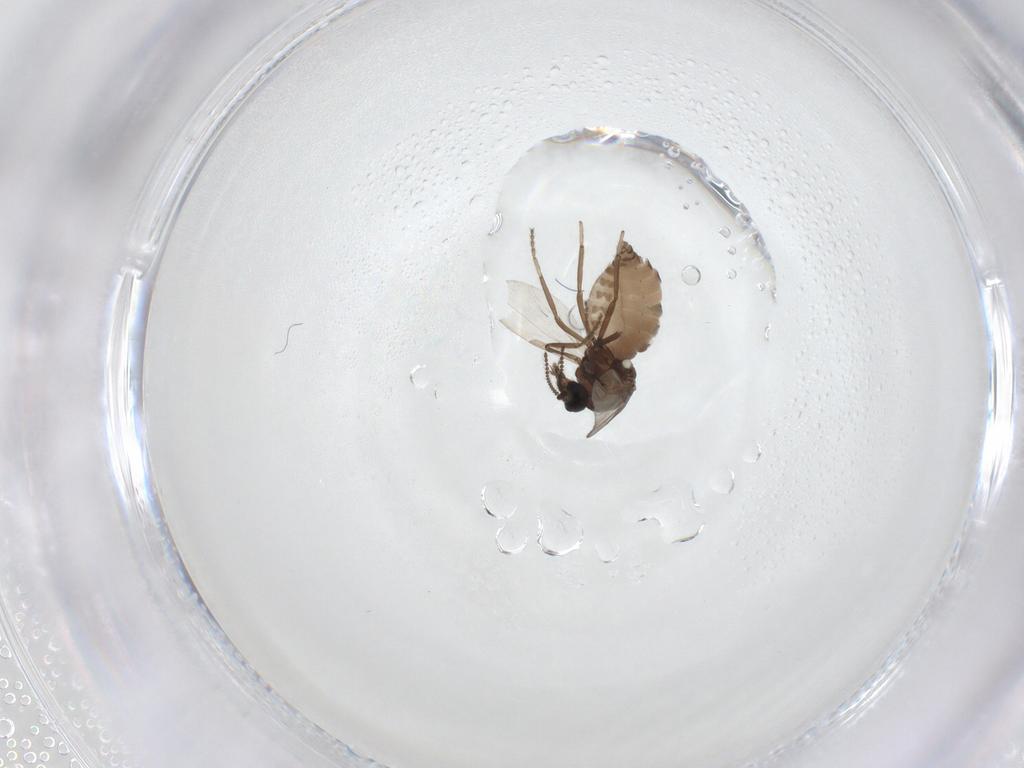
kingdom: Animalia
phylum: Arthropoda
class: Insecta
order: Diptera
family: Ceratopogonidae
